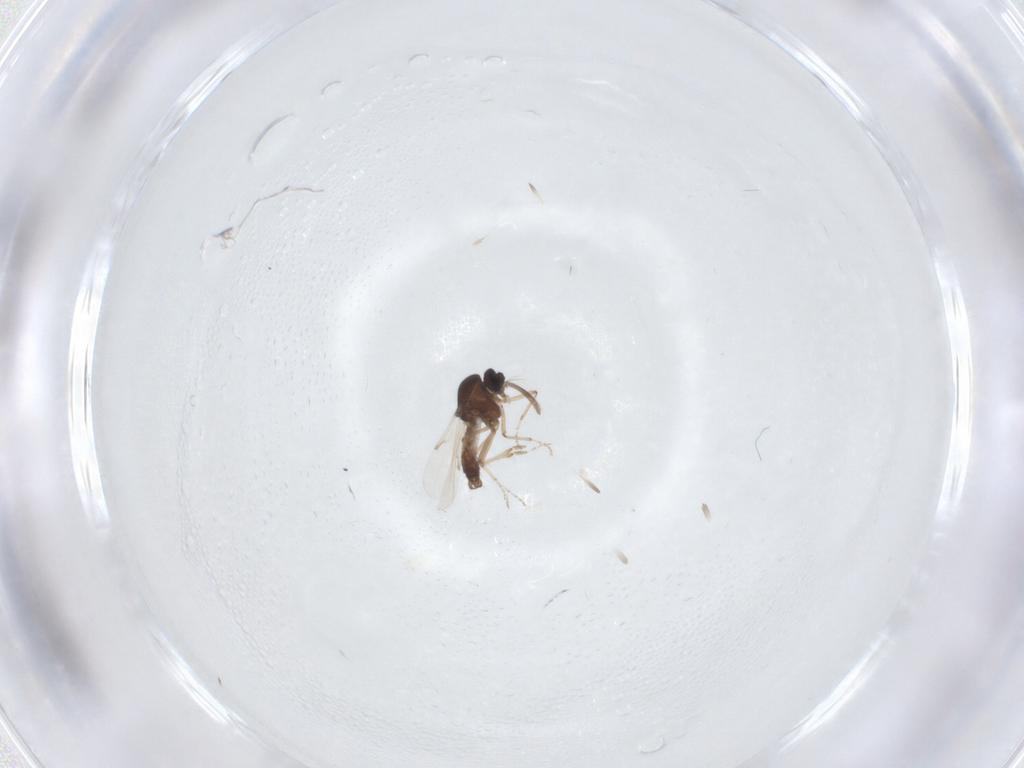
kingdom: Animalia
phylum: Arthropoda
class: Insecta
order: Diptera
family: Ceratopogonidae
